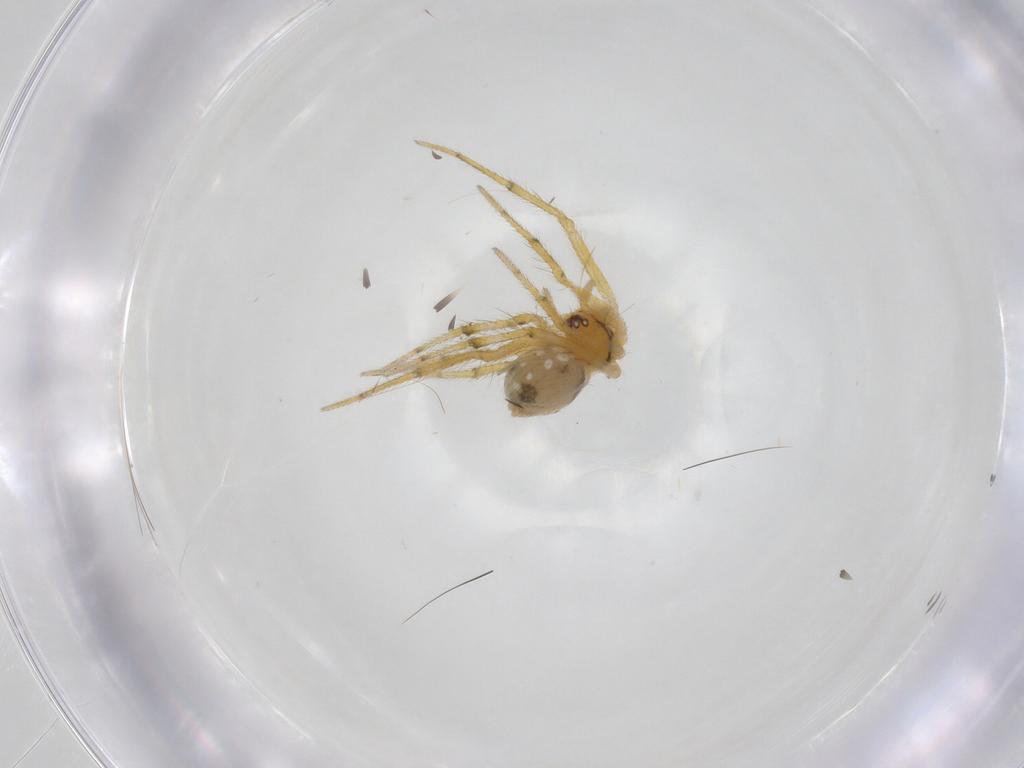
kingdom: Animalia
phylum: Arthropoda
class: Arachnida
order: Araneae
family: Theridiidae
